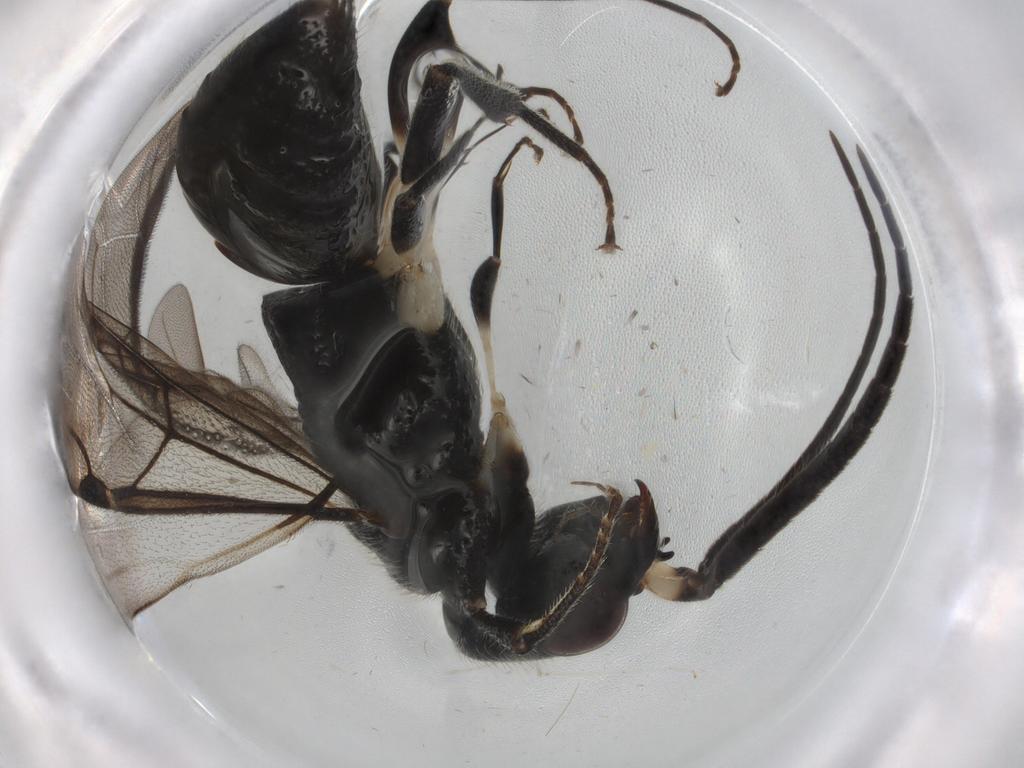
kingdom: Animalia
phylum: Arthropoda
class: Insecta
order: Hymenoptera
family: Bethylidae
